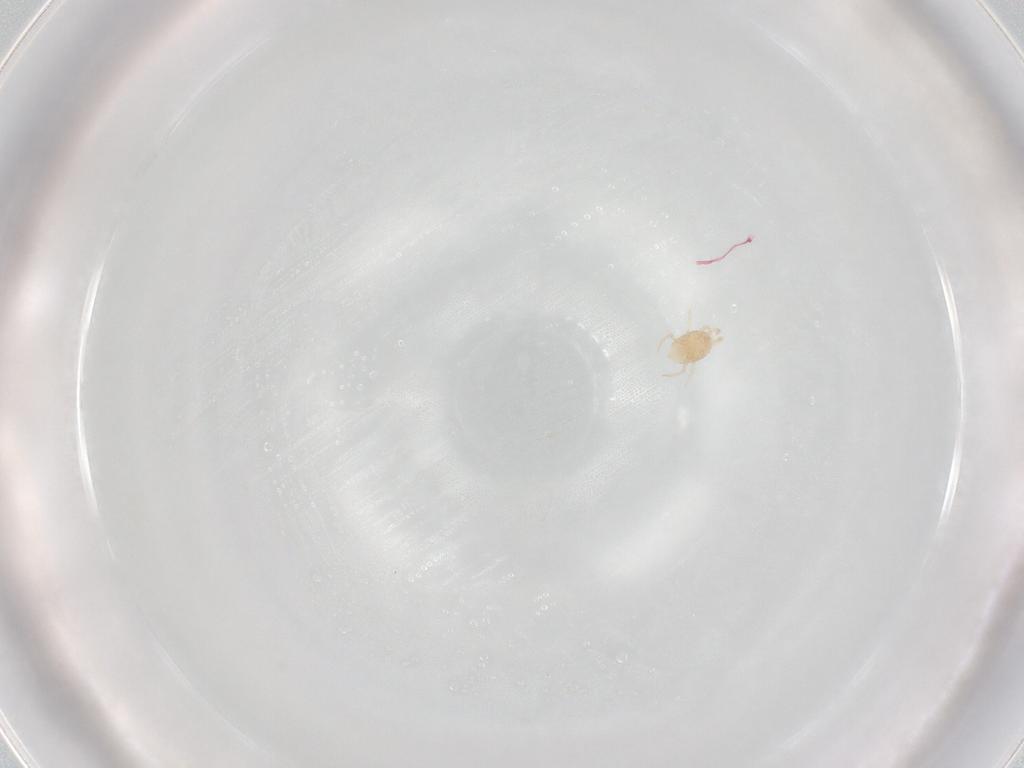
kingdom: Animalia
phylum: Arthropoda
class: Arachnida
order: Mesostigmata
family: Melicharidae
